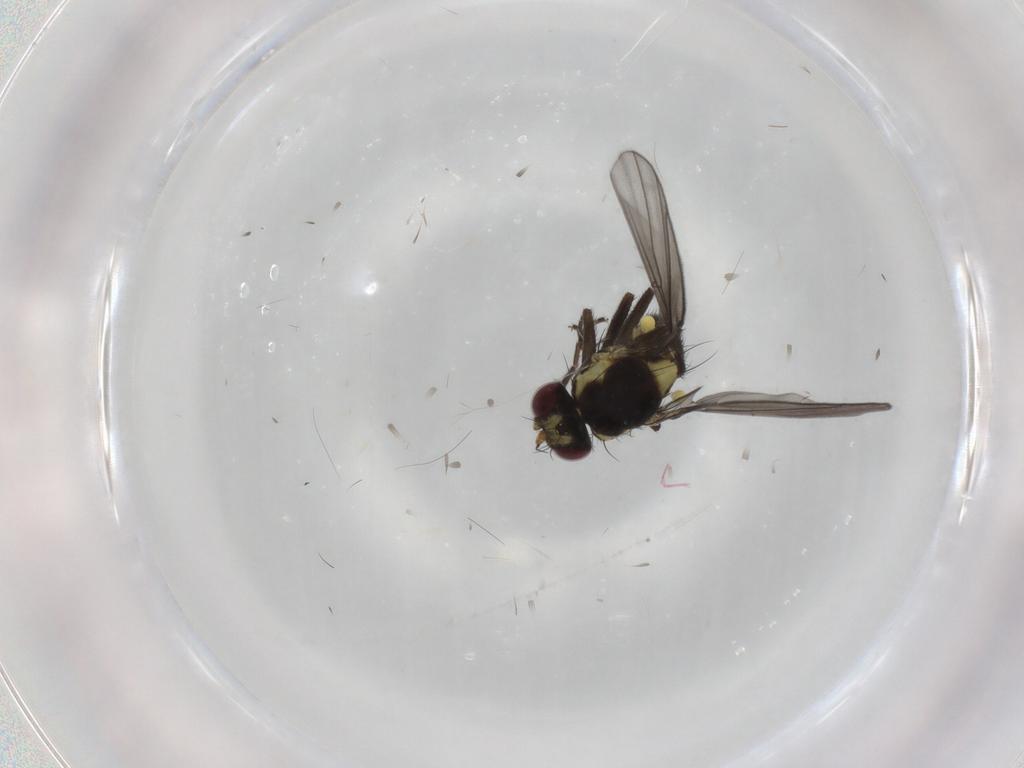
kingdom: Animalia
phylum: Arthropoda
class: Insecta
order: Diptera
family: Agromyzidae
